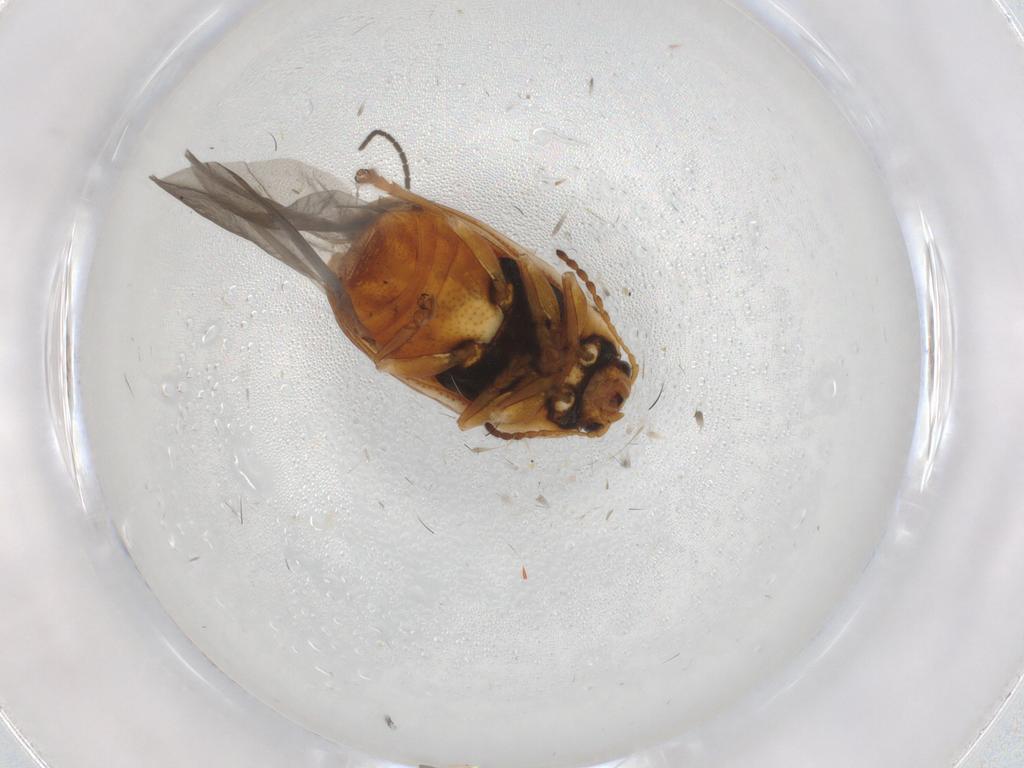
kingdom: Animalia
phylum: Arthropoda
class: Insecta
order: Coleoptera
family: Chrysomelidae
